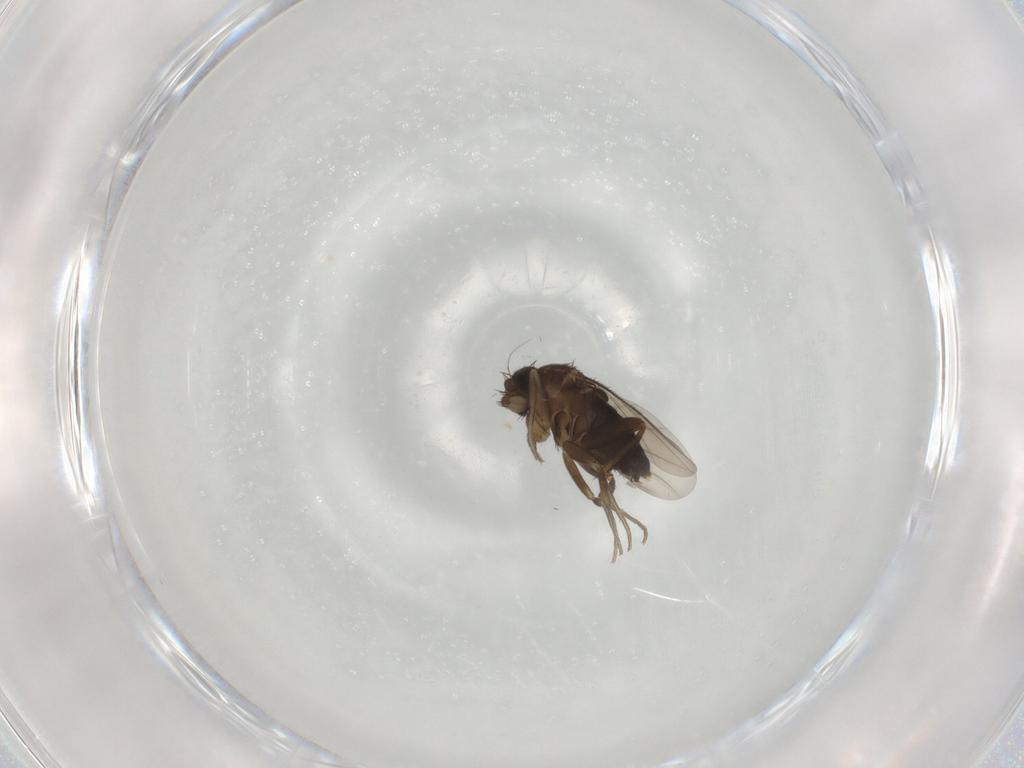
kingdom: Animalia
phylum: Arthropoda
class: Insecta
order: Diptera
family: Phoridae
